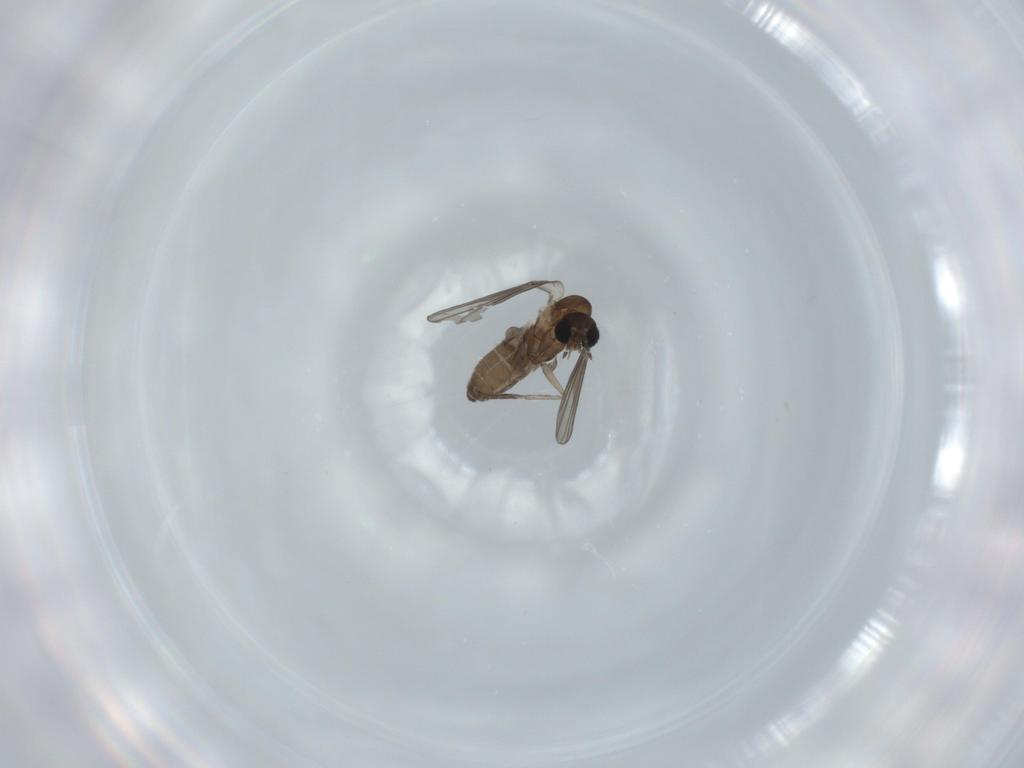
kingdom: Animalia
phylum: Arthropoda
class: Insecta
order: Diptera
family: Psychodidae
